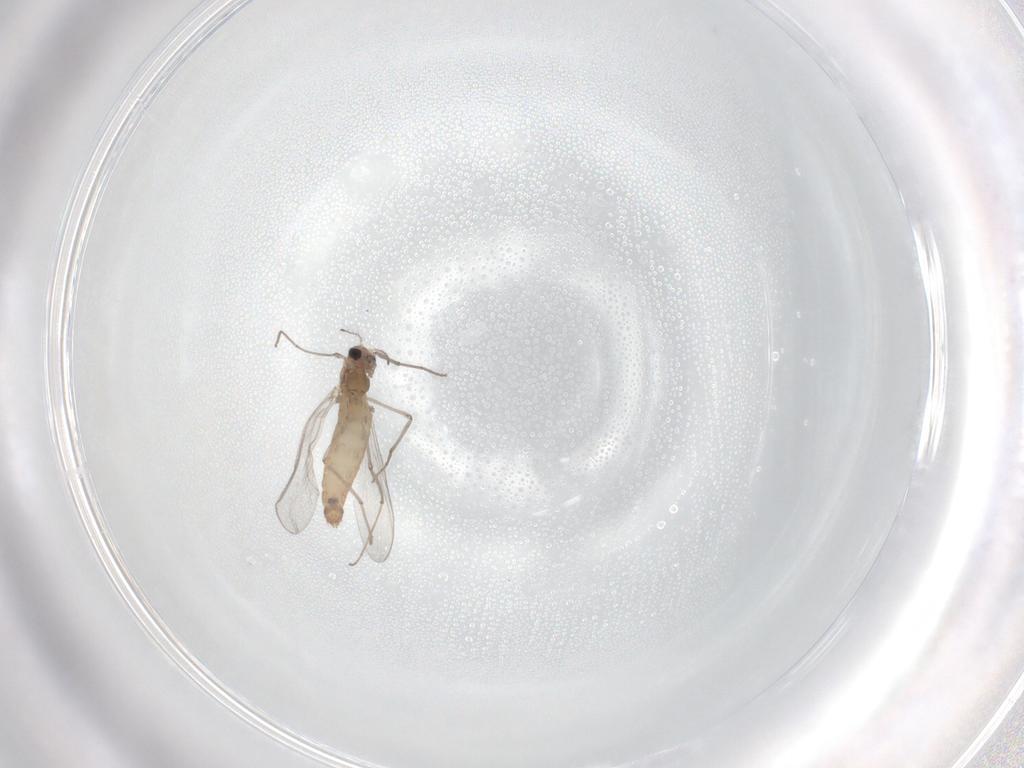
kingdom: Animalia
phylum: Arthropoda
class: Insecta
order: Diptera
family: Chironomidae
